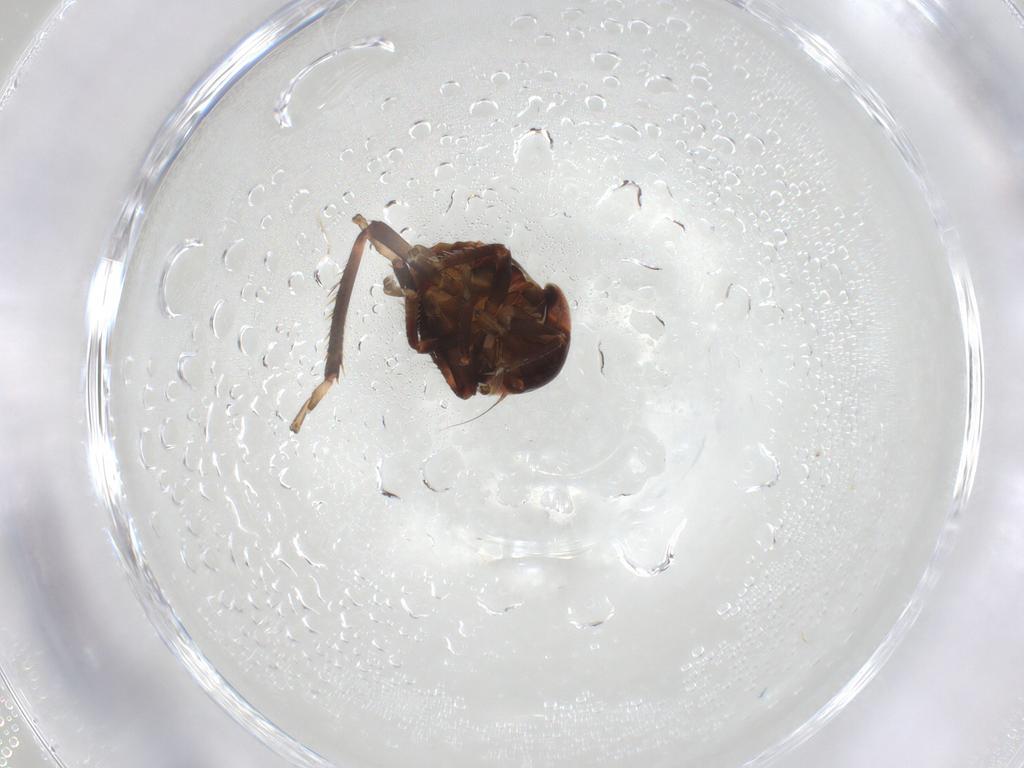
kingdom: Animalia
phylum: Arthropoda
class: Insecta
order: Hemiptera
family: Cicadellidae
